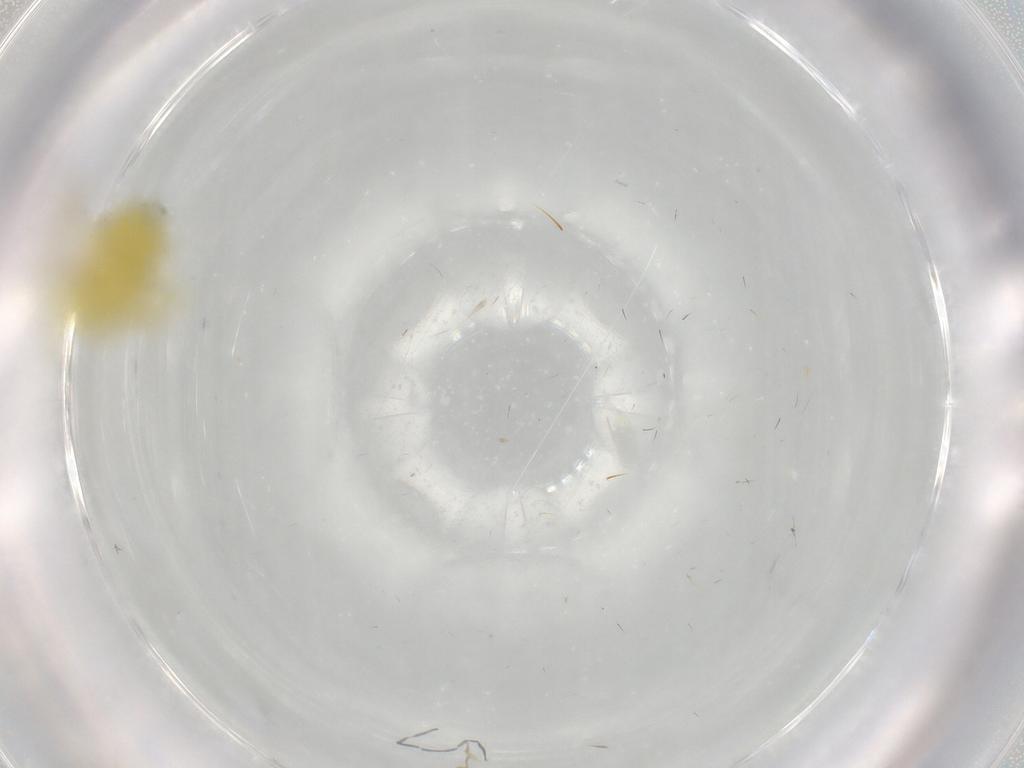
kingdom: Animalia
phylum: Arthropoda
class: Insecta
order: Hemiptera
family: Cicadellidae
